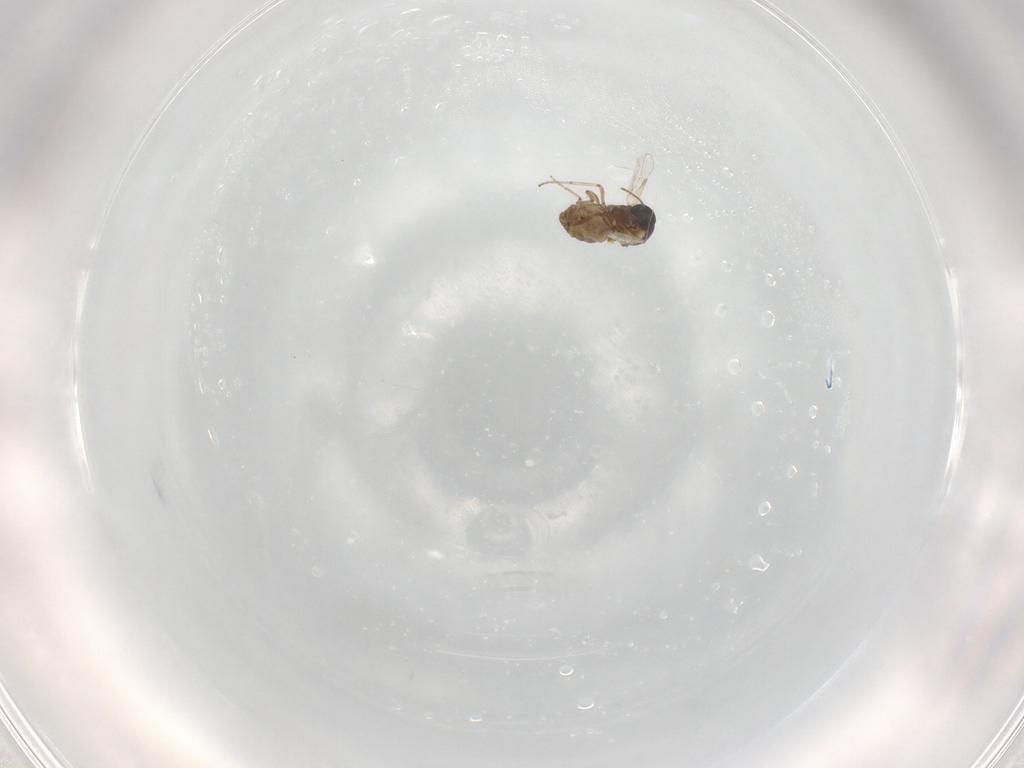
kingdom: Animalia
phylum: Arthropoda
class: Insecta
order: Diptera
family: Ceratopogonidae
